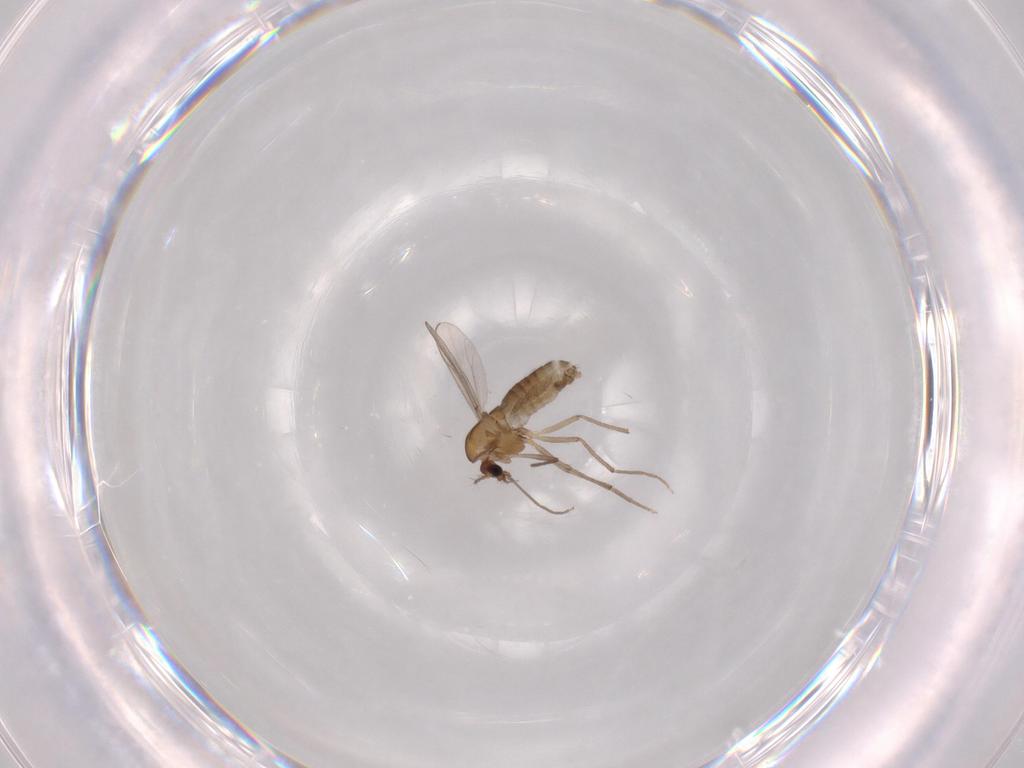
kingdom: Animalia
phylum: Arthropoda
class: Insecta
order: Diptera
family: Chironomidae
